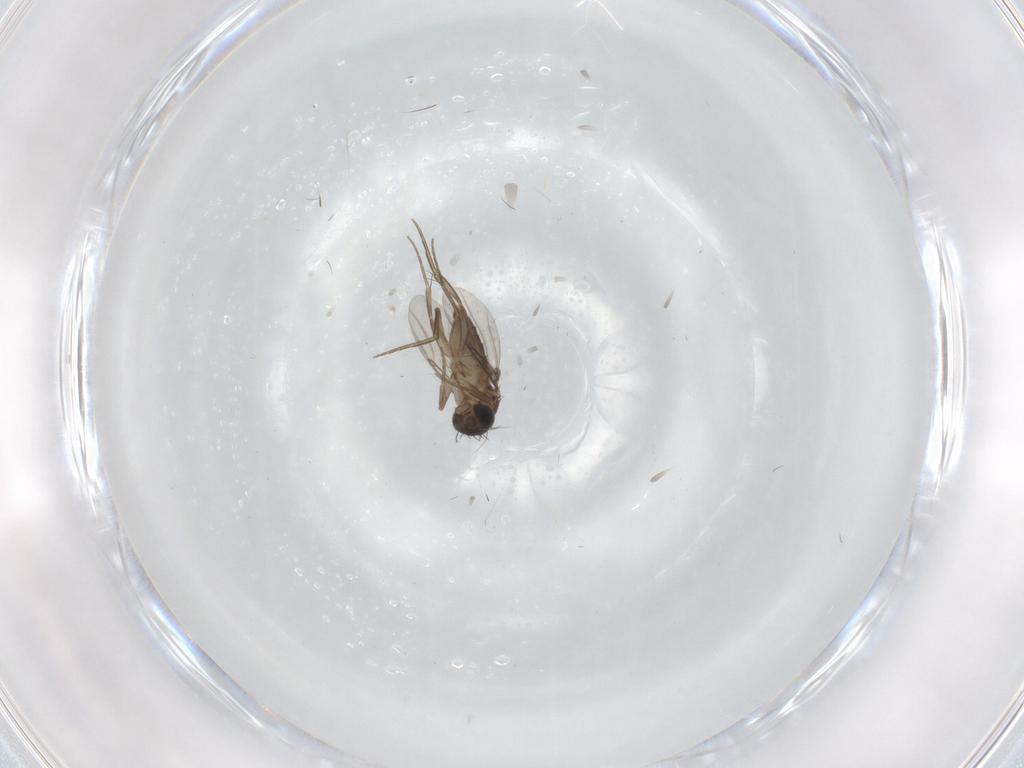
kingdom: Animalia
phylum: Arthropoda
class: Insecta
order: Diptera
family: Phoridae
